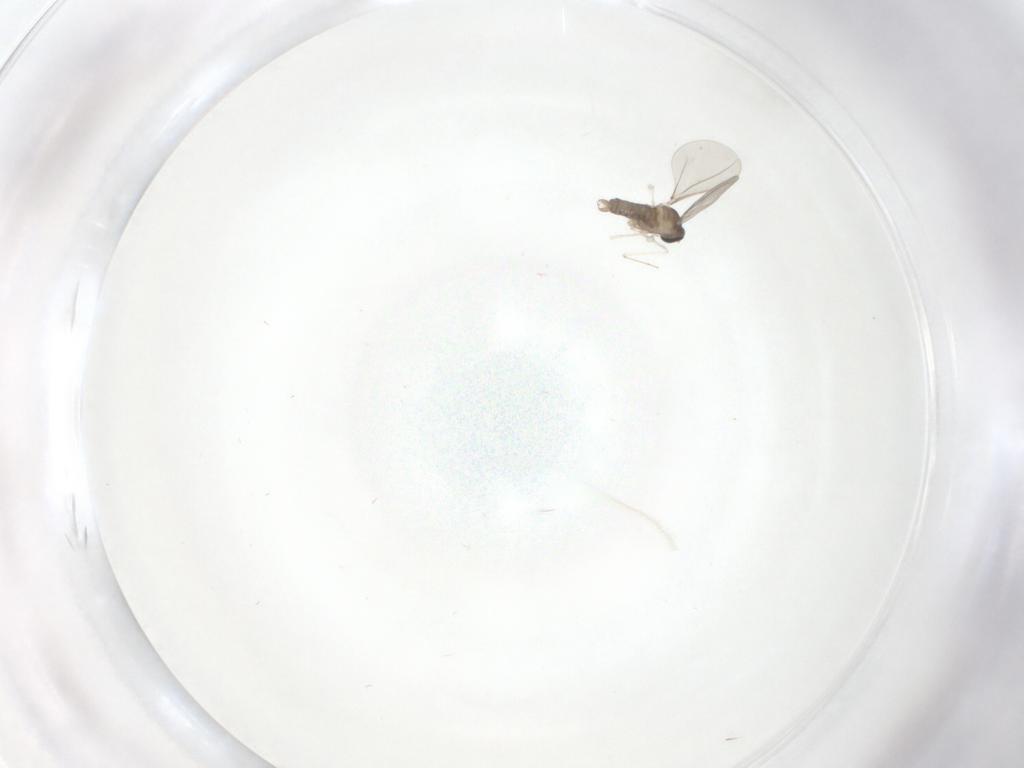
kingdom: Animalia
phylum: Arthropoda
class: Insecta
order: Diptera
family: Cecidomyiidae
